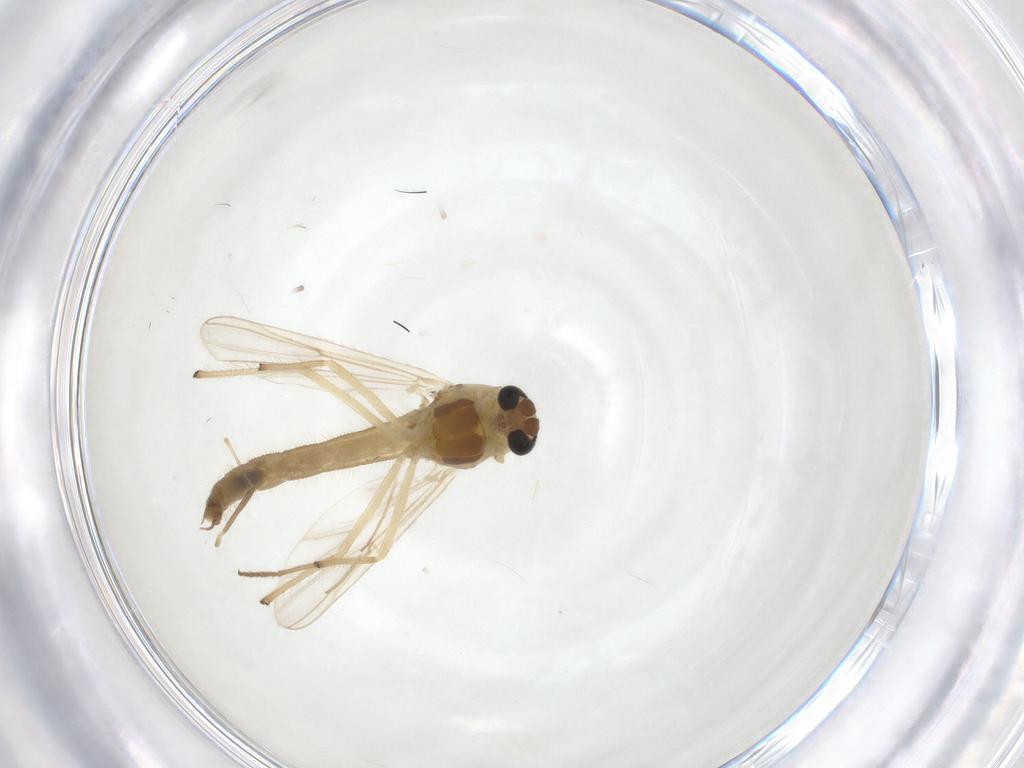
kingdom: Animalia
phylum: Arthropoda
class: Insecta
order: Diptera
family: Chironomidae
